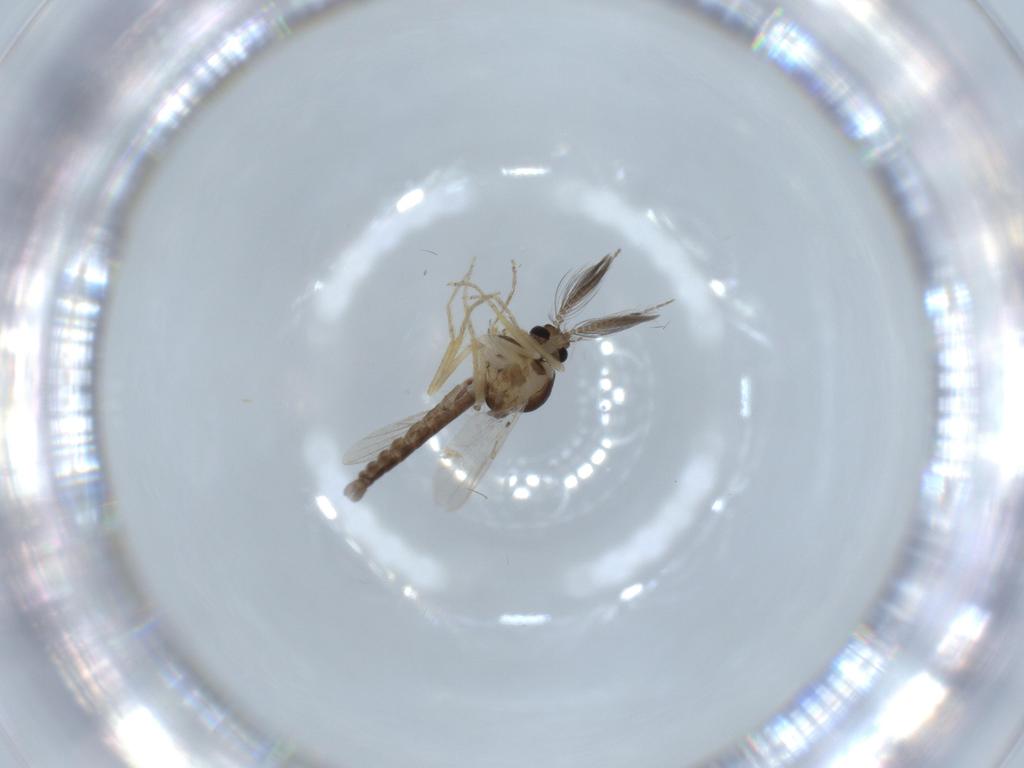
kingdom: Animalia
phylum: Arthropoda
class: Insecta
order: Diptera
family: Ceratopogonidae
